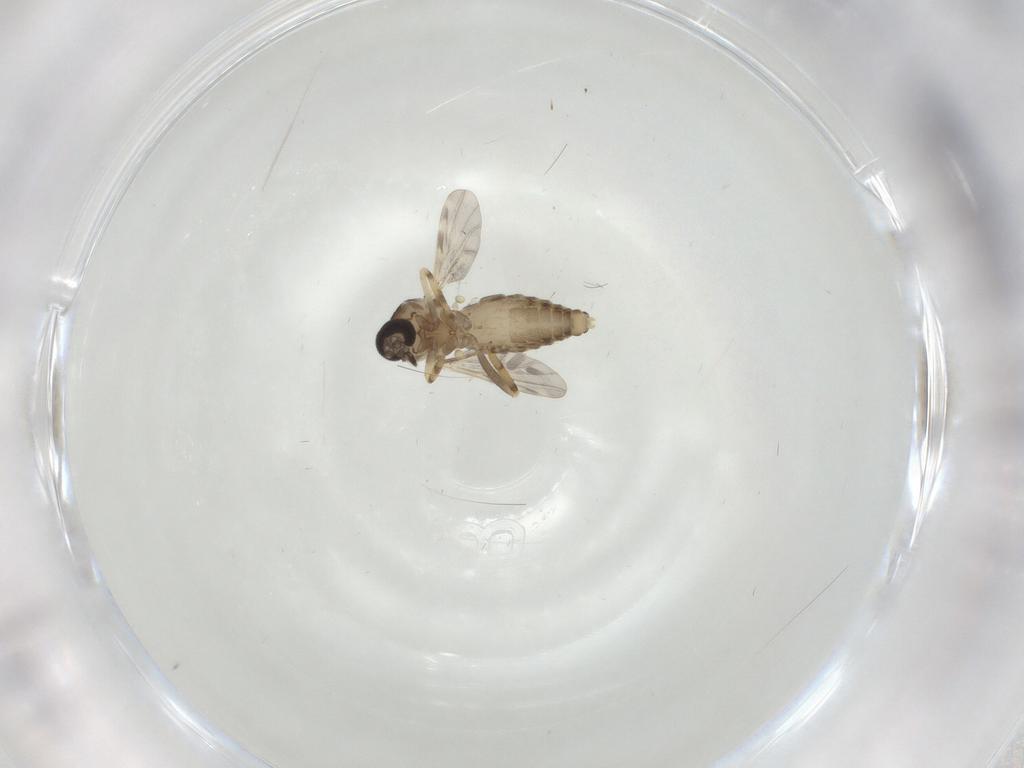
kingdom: Animalia
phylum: Arthropoda
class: Insecta
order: Diptera
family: Ceratopogonidae
